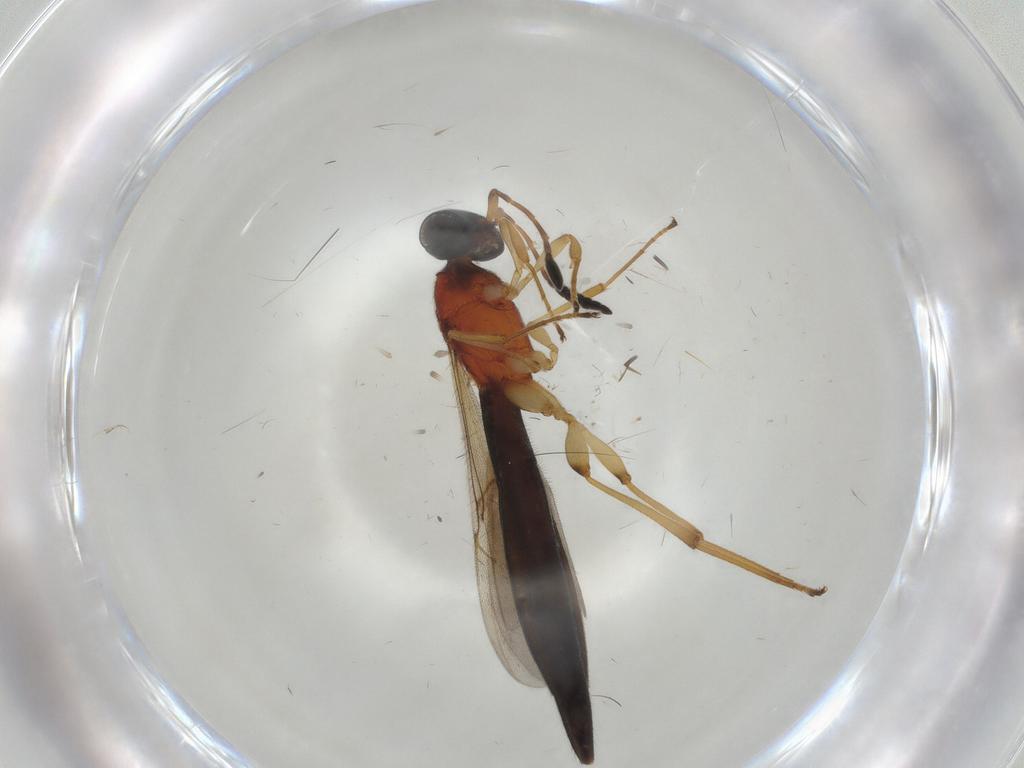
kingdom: Animalia
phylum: Arthropoda
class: Insecta
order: Hymenoptera
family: Scelionidae
